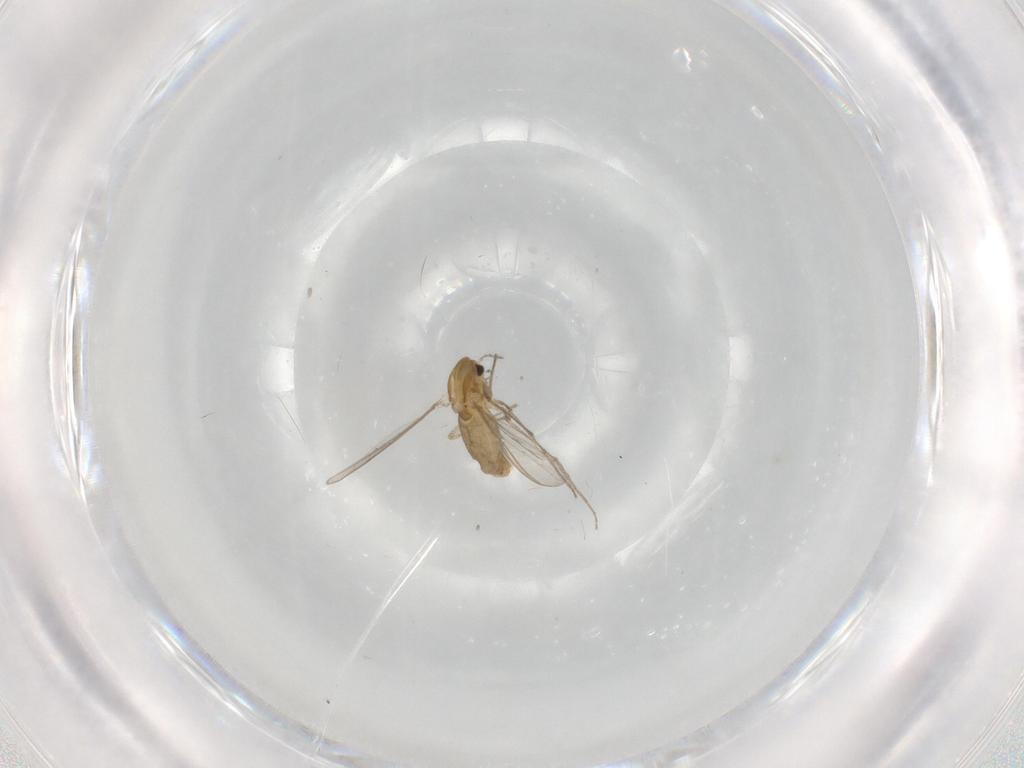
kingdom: Animalia
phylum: Arthropoda
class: Insecta
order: Diptera
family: Chironomidae
